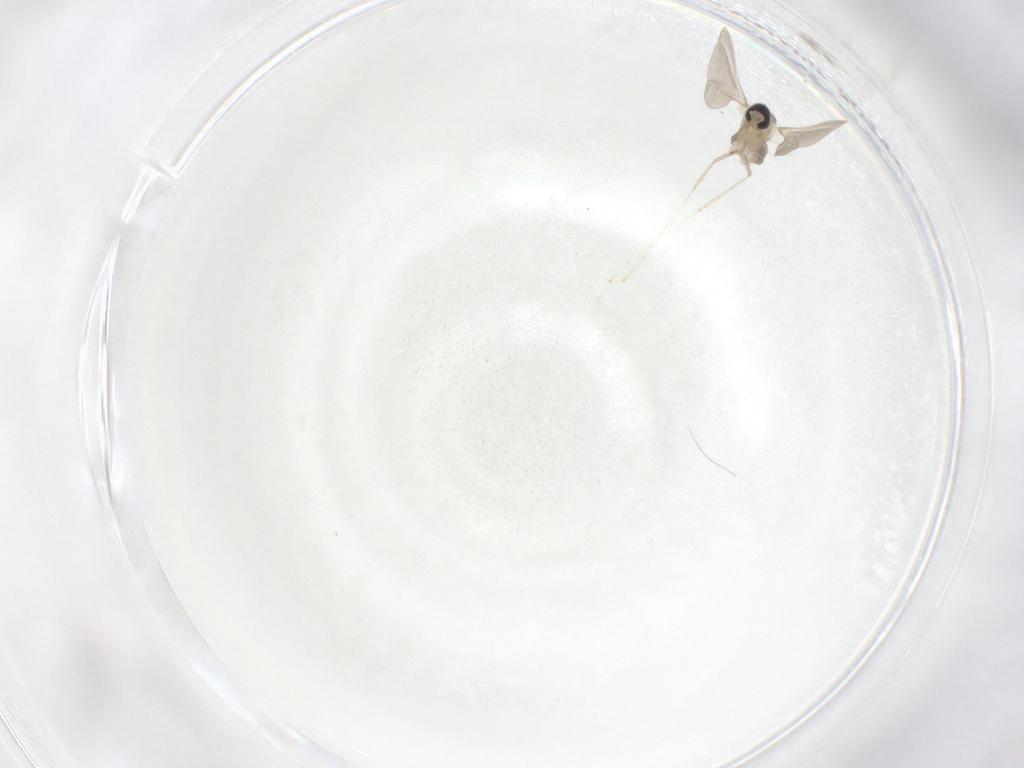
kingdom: Animalia
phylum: Arthropoda
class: Insecta
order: Diptera
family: Cecidomyiidae
